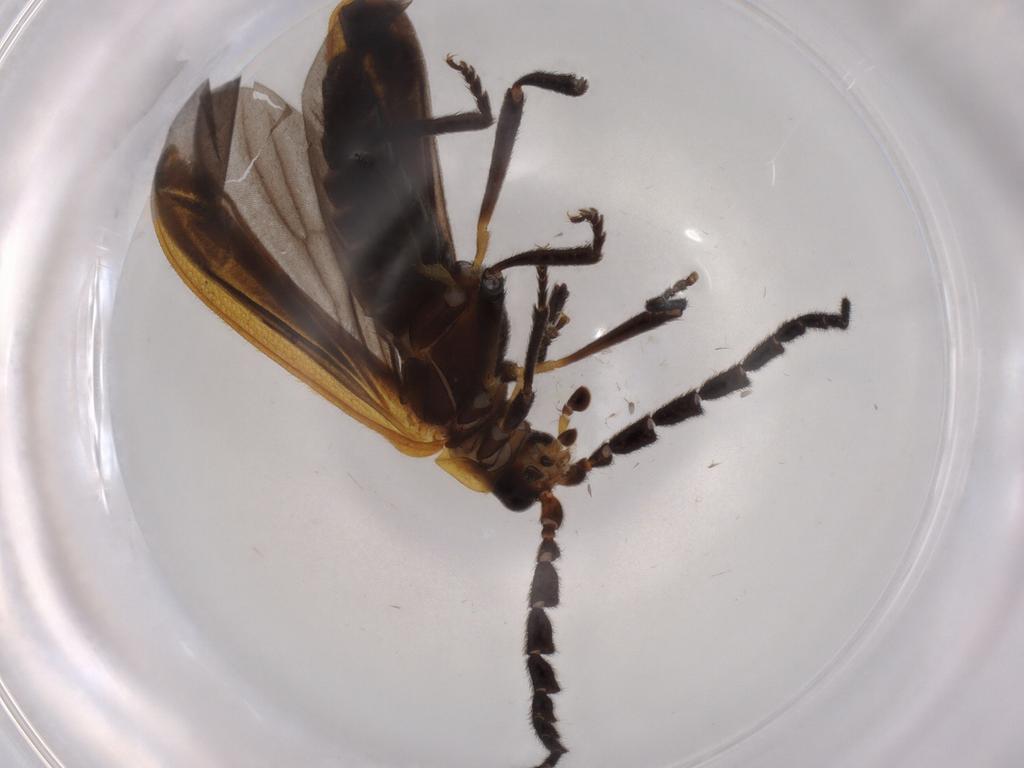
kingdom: Animalia
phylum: Arthropoda
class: Insecta
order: Coleoptera
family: Lycidae
